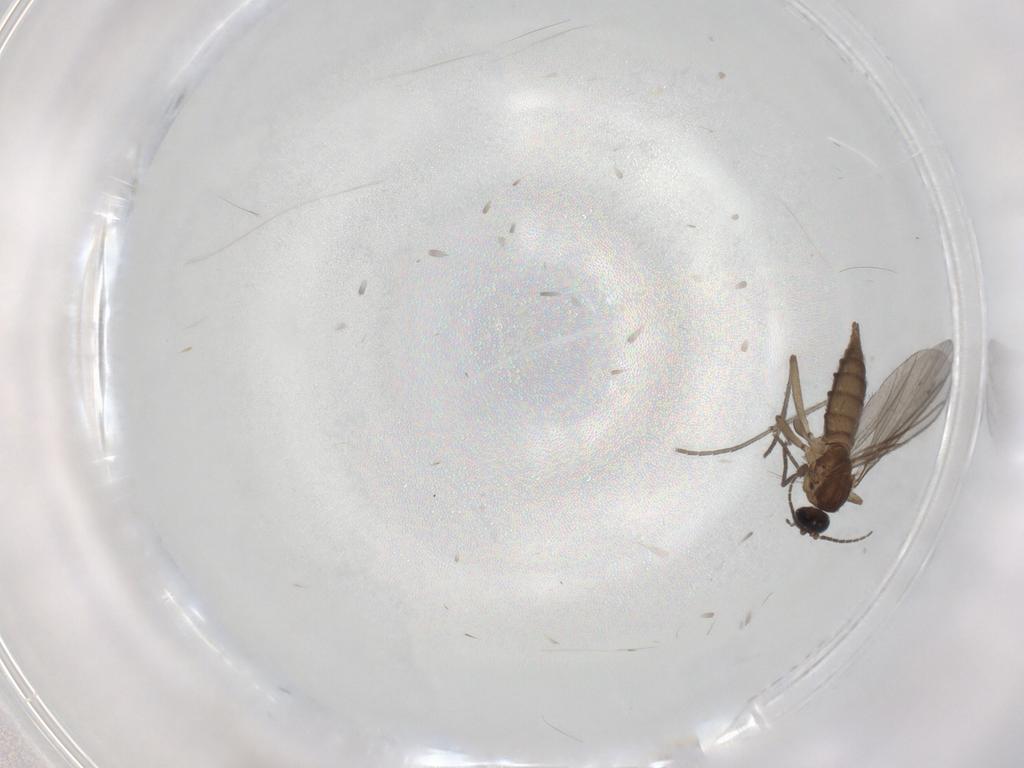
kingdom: Animalia
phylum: Arthropoda
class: Insecta
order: Diptera
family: Sciaridae
